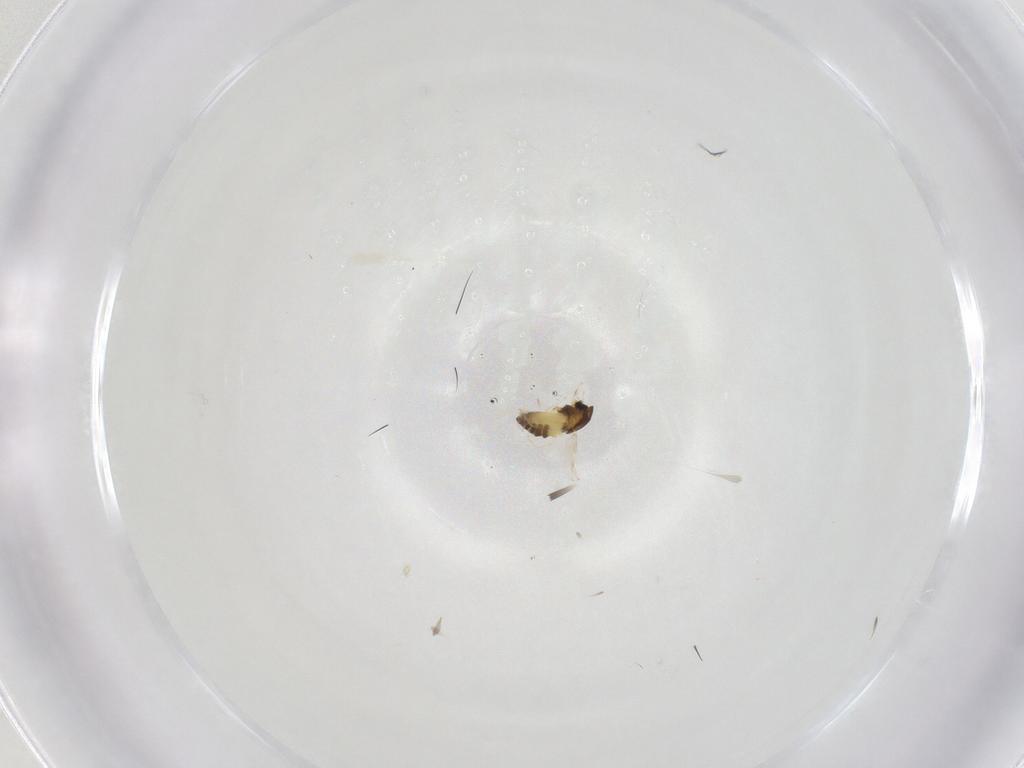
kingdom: Animalia
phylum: Arthropoda
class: Insecta
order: Diptera
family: Chironomidae
